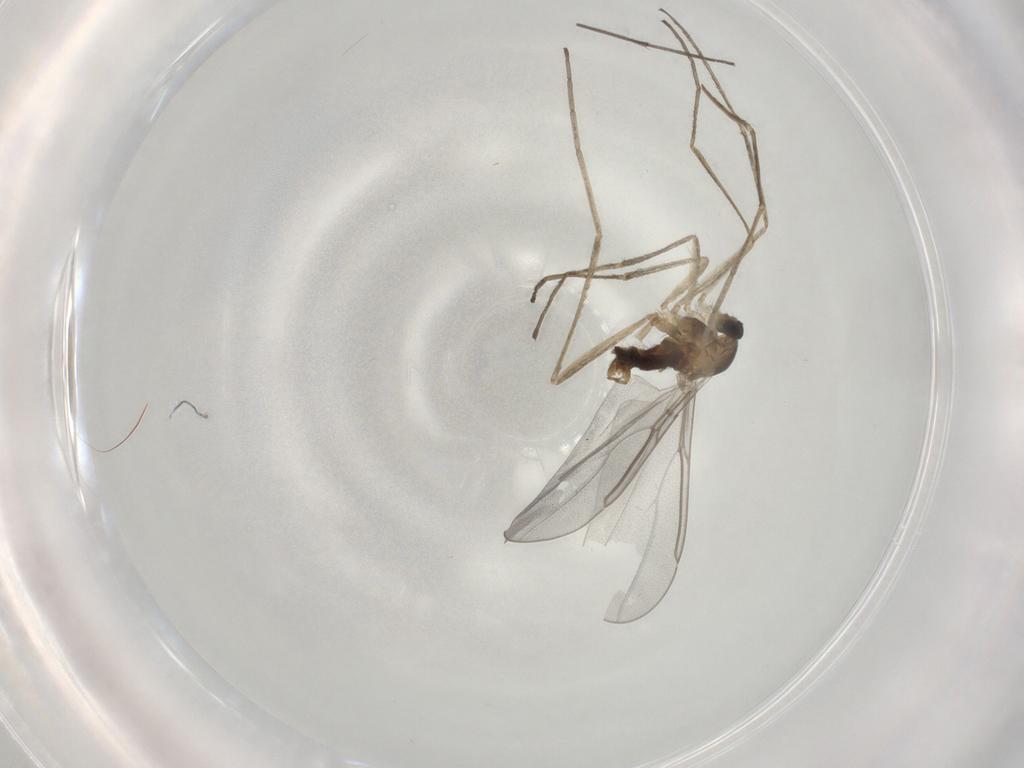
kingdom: Animalia
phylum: Arthropoda
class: Insecta
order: Diptera
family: Cecidomyiidae
